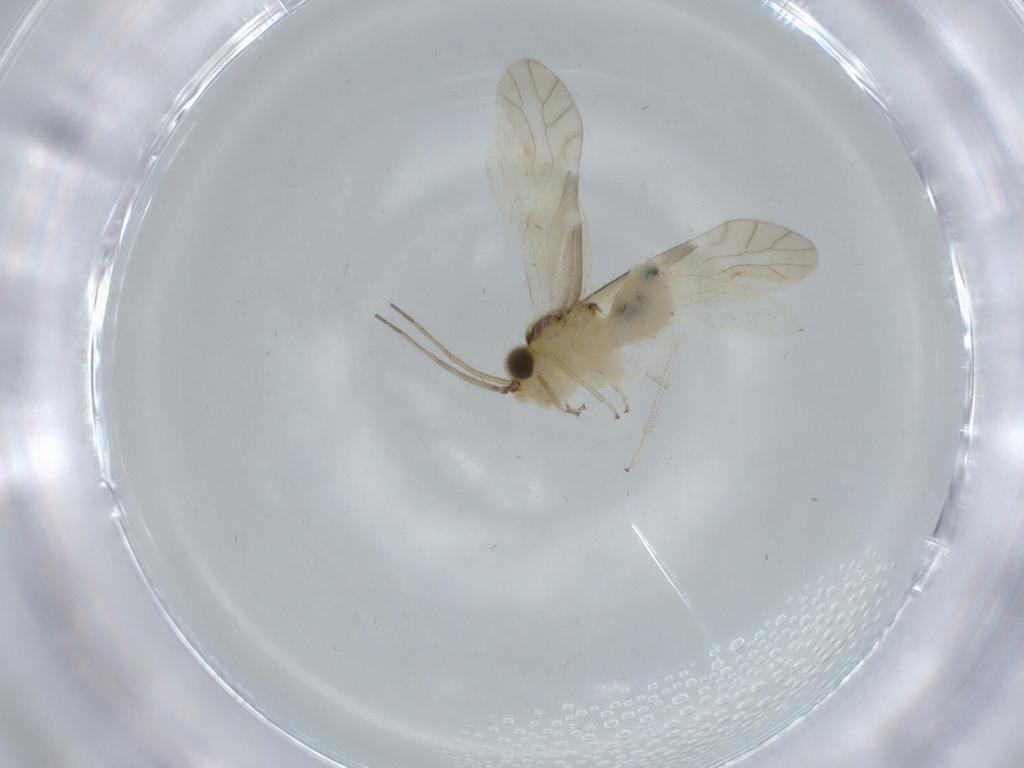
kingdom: Animalia
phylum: Arthropoda
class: Insecta
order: Psocodea
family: Caeciliusidae
